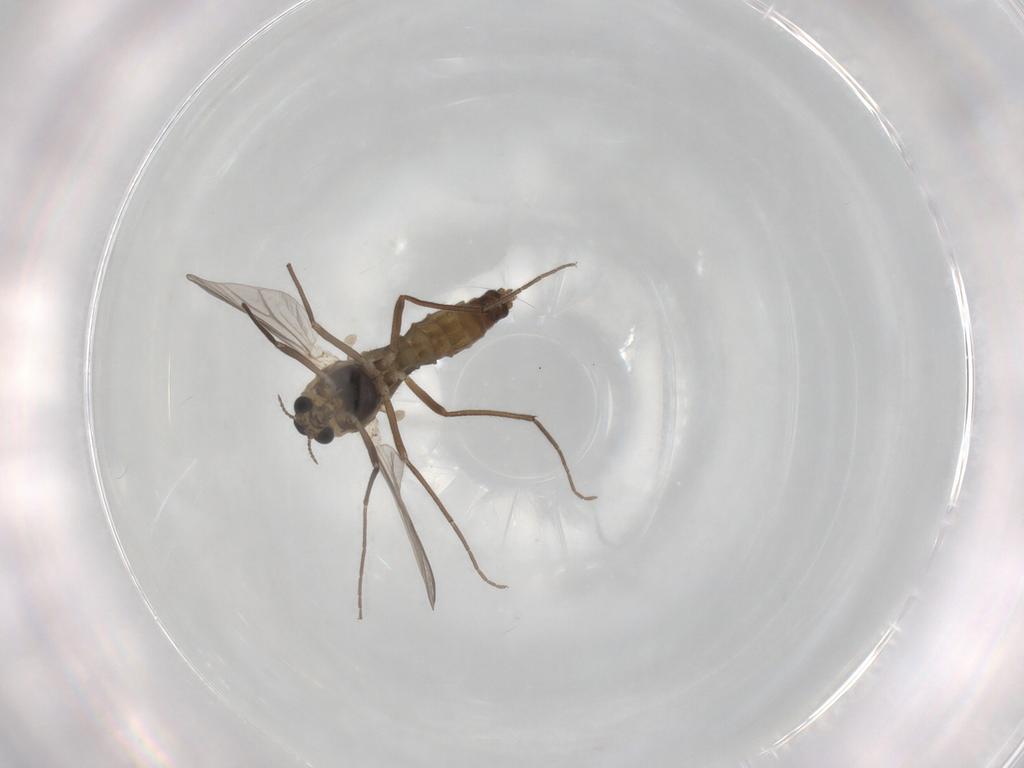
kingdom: Animalia
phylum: Arthropoda
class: Insecta
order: Diptera
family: Chironomidae
